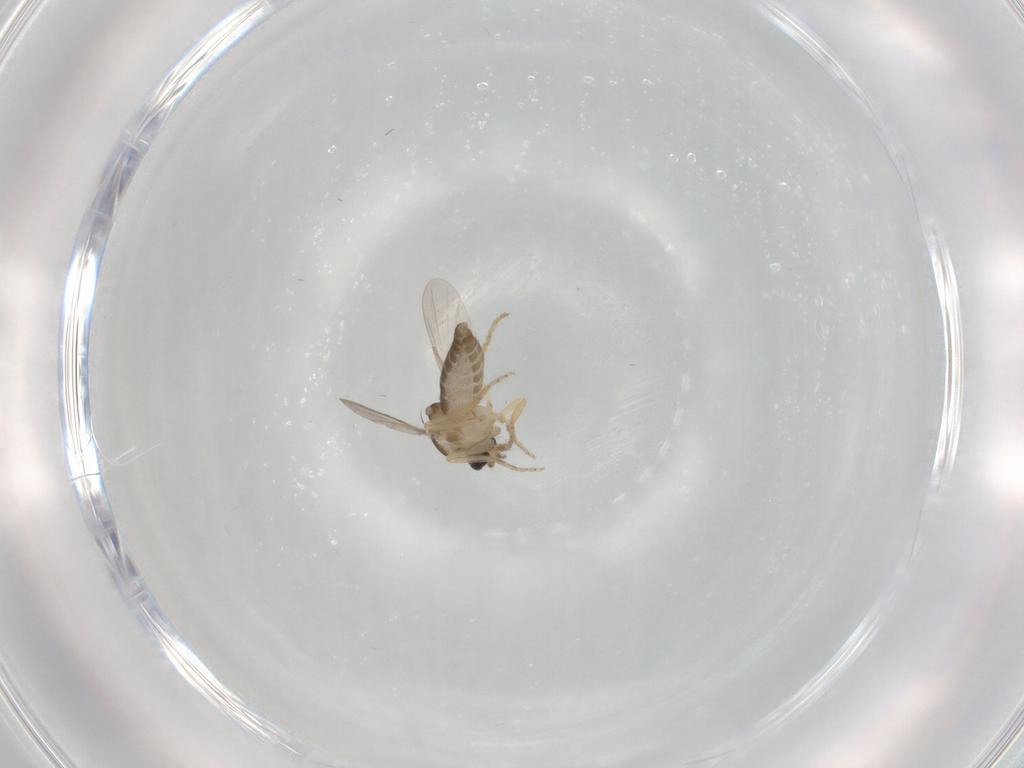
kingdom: Animalia
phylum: Arthropoda
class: Insecta
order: Diptera
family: Ceratopogonidae
